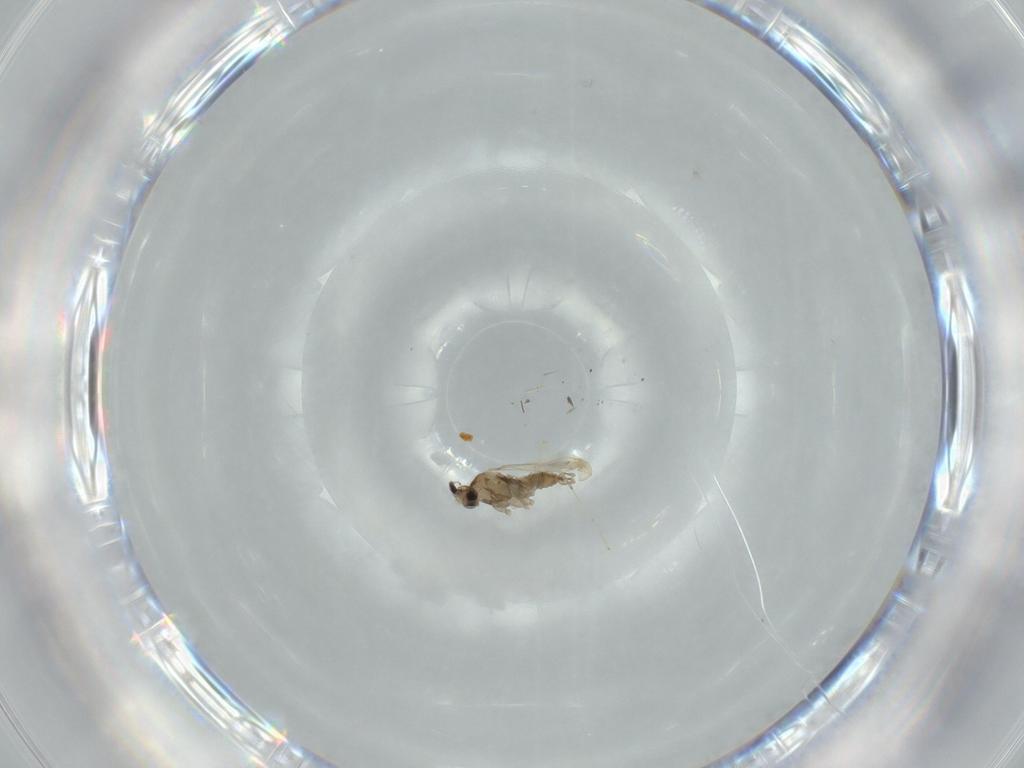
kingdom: Animalia
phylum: Arthropoda
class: Insecta
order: Diptera
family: Cecidomyiidae
